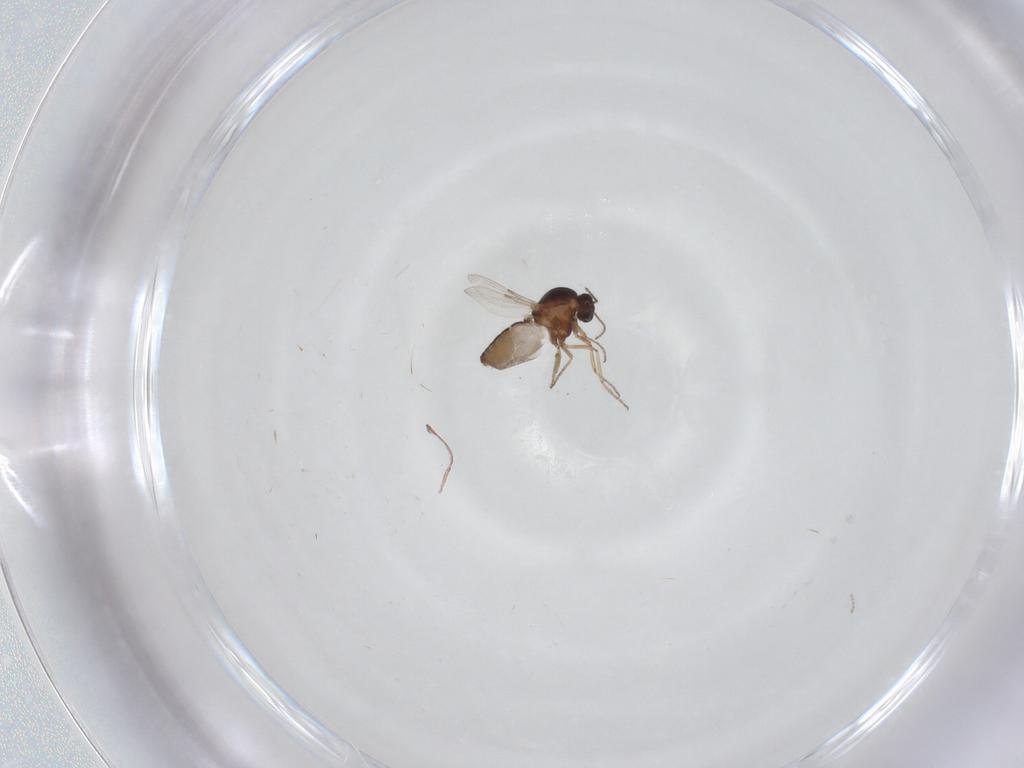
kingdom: Animalia
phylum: Arthropoda
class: Insecta
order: Diptera
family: Ceratopogonidae
